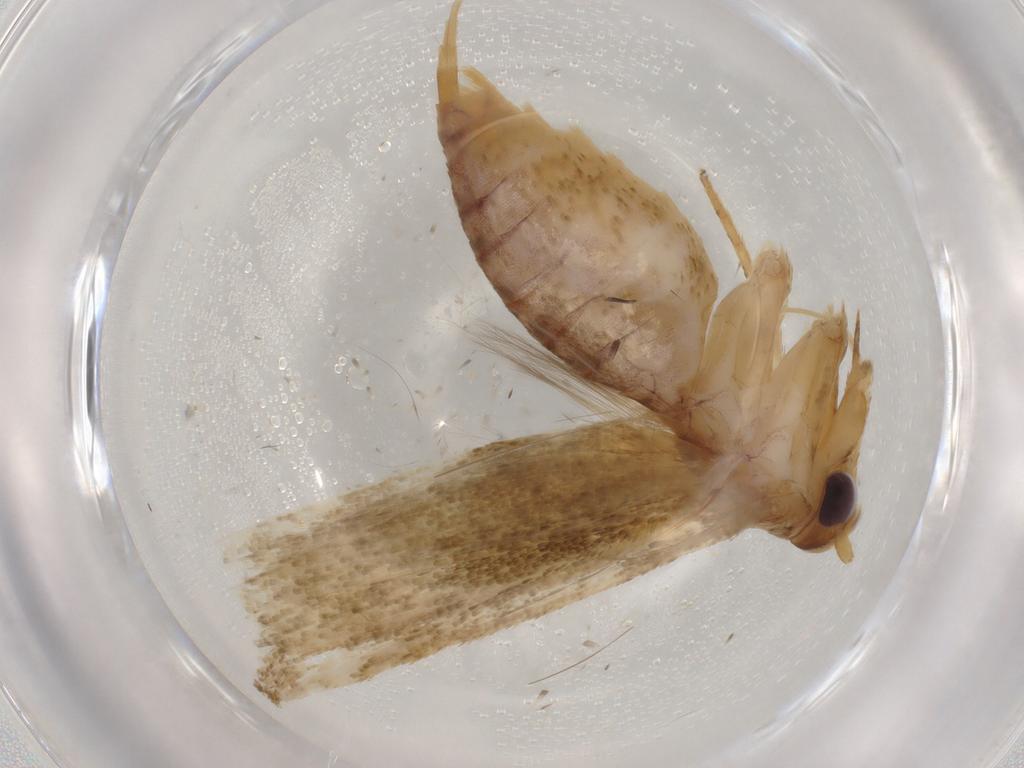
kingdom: Animalia
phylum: Arthropoda
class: Insecta
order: Lepidoptera
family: Blastobasidae
